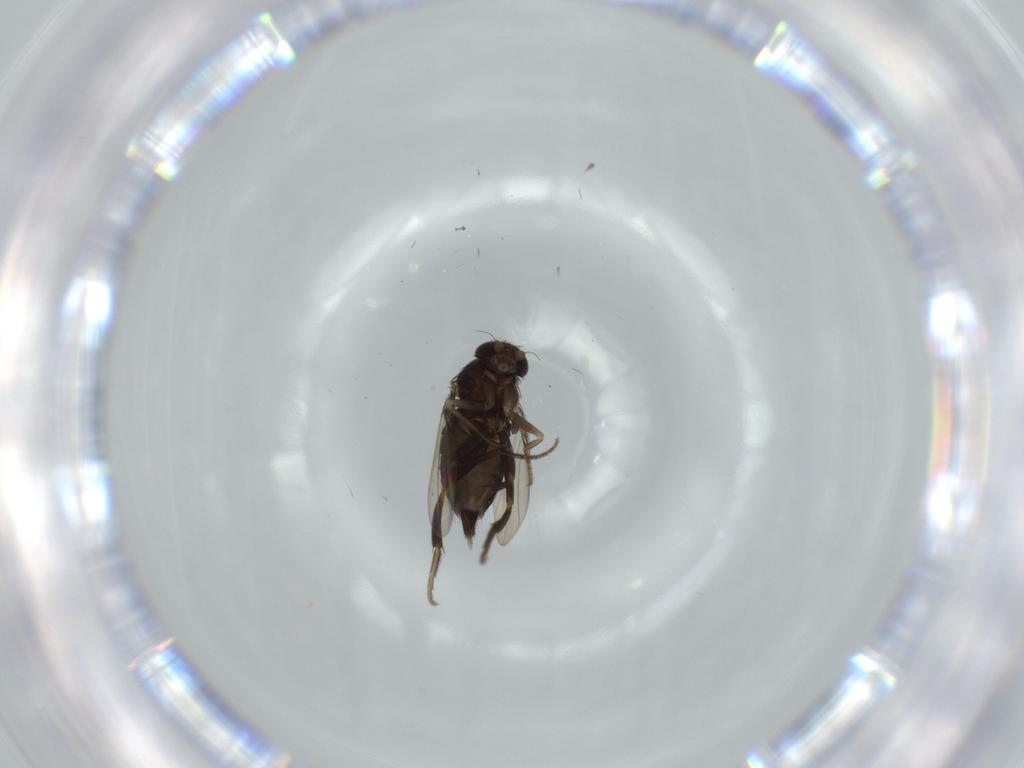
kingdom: Animalia
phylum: Arthropoda
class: Insecta
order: Diptera
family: Phoridae
